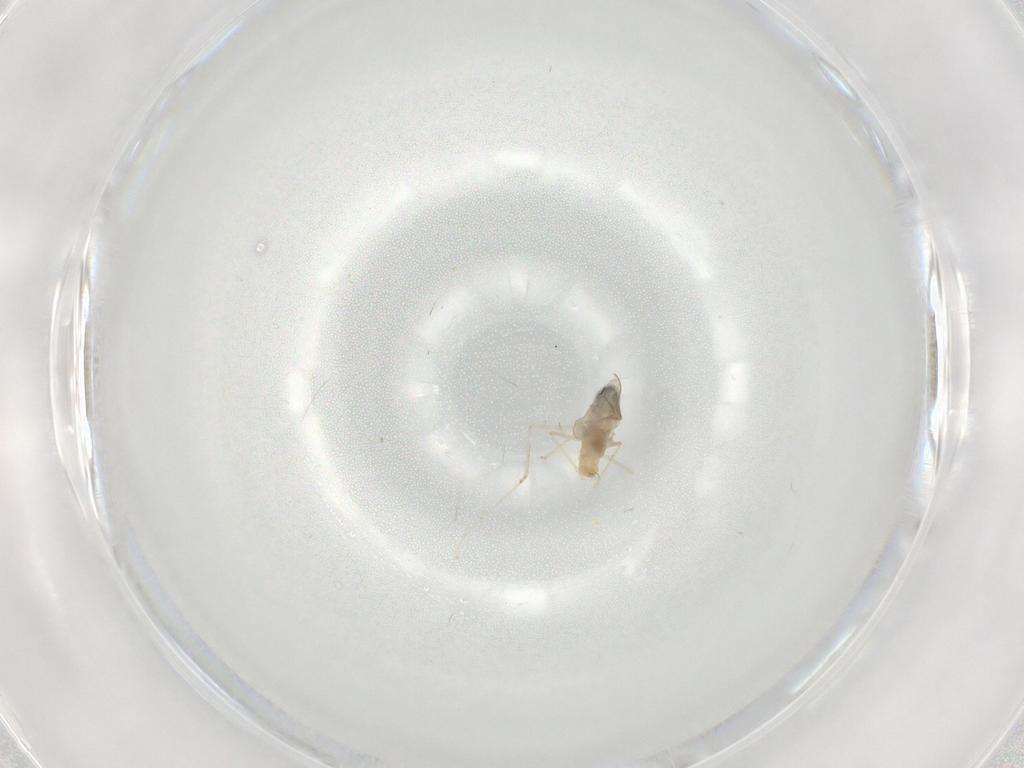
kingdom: Animalia
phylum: Arthropoda
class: Insecta
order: Diptera
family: Cecidomyiidae
